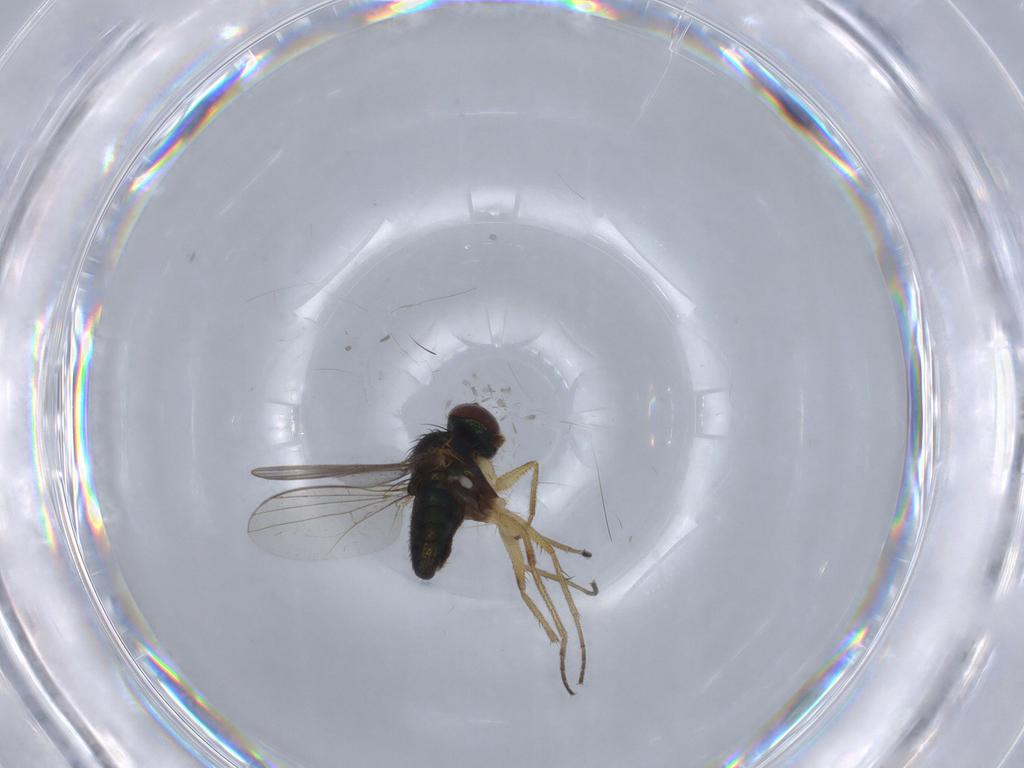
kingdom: Animalia
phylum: Arthropoda
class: Insecta
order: Diptera
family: Dolichopodidae
